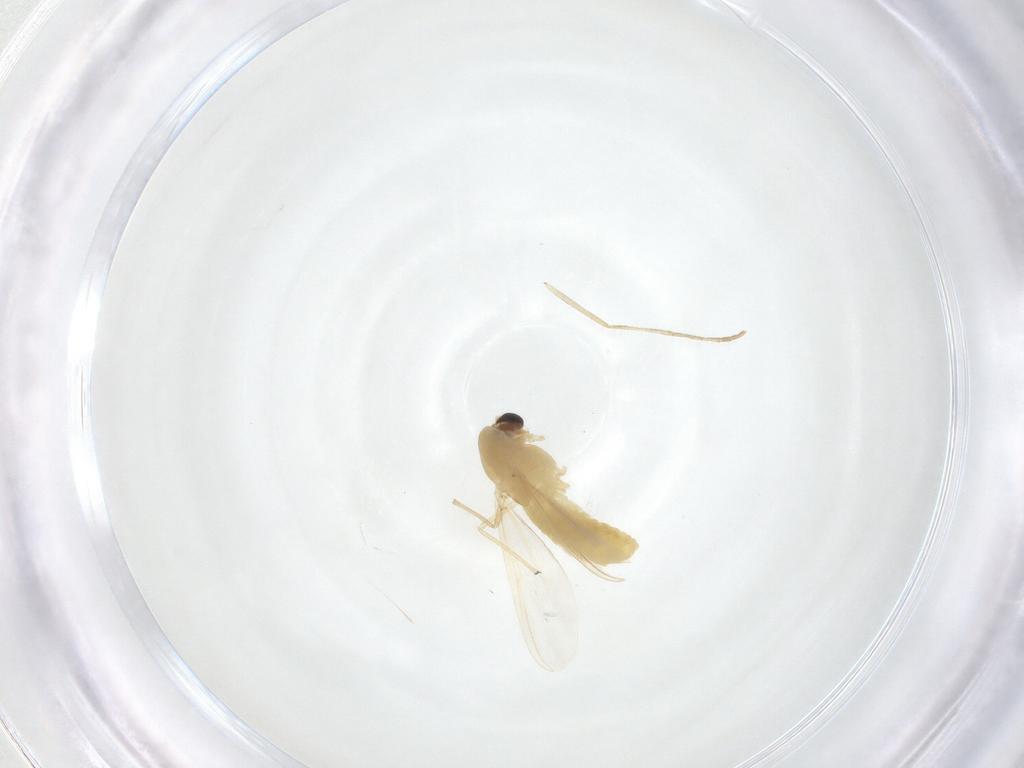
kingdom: Animalia
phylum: Arthropoda
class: Insecta
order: Diptera
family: Chironomidae
